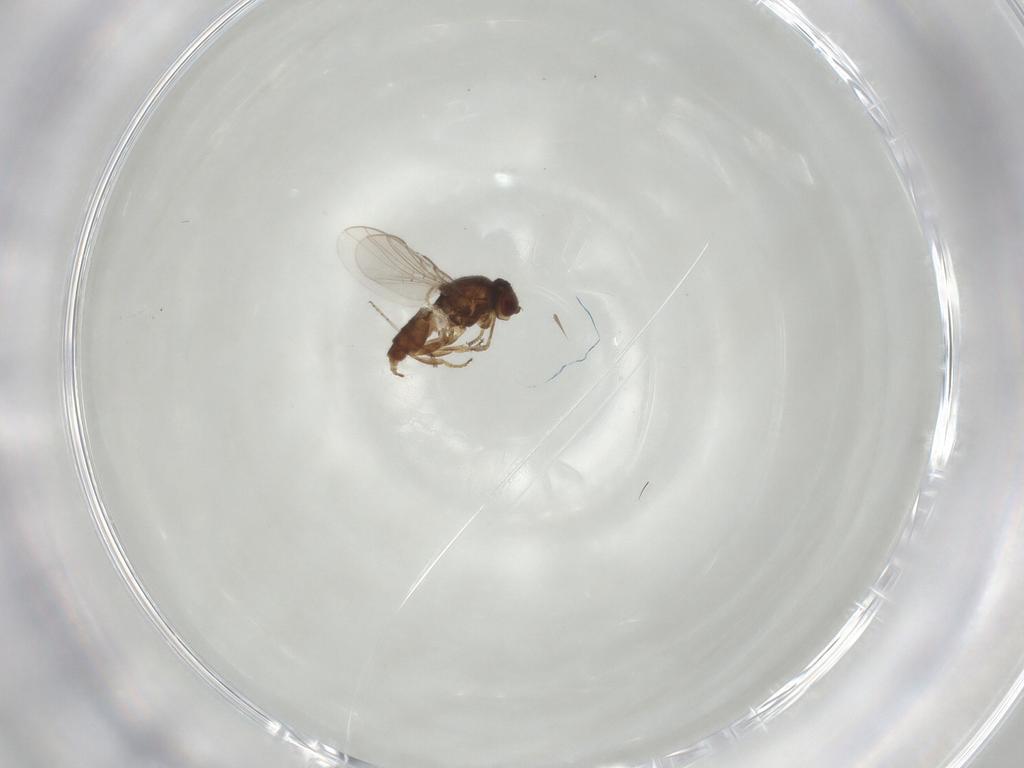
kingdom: Animalia
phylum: Arthropoda
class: Insecta
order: Diptera
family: Chloropidae
